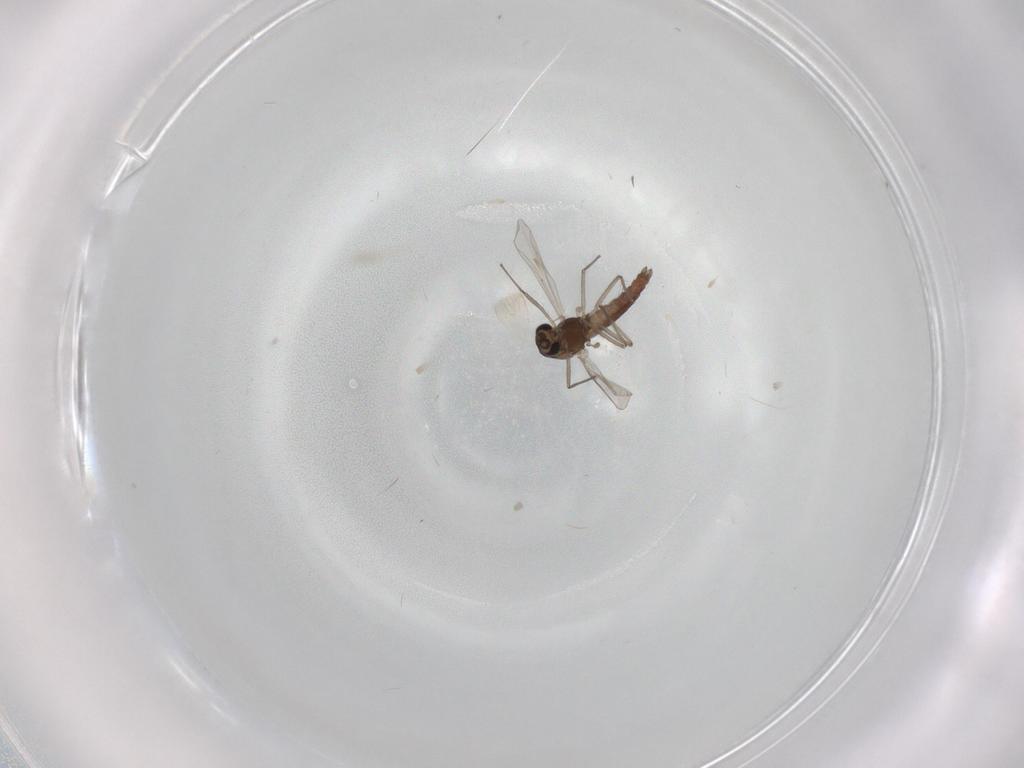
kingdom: Animalia
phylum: Arthropoda
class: Insecta
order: Diptera
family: Chironomidae
